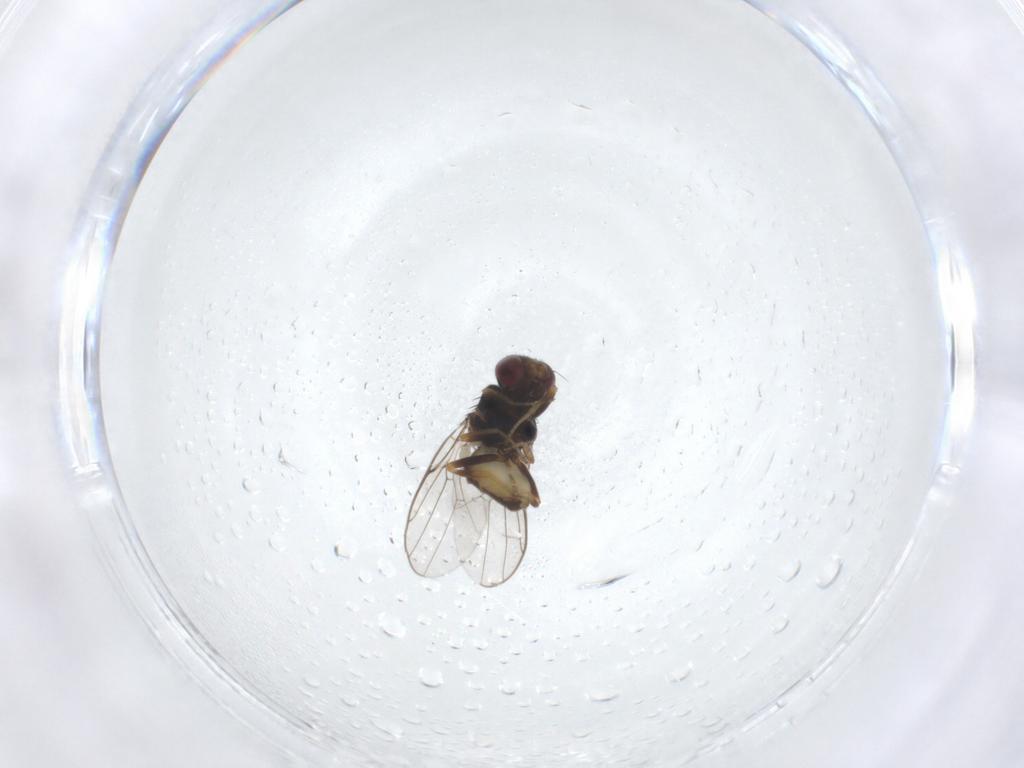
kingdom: Animalia
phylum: Arthropoda
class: Insecta
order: Diptera
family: Chloropidae
